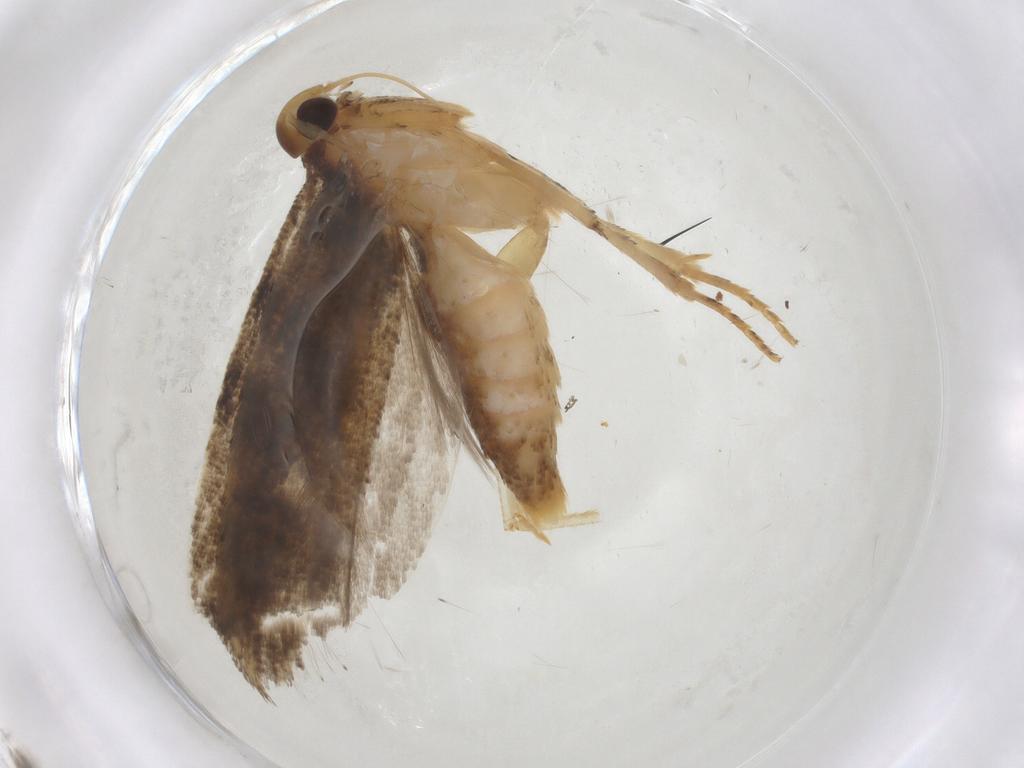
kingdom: Animalia
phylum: Arthropoda
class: Insecta
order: Lepidoptera
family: Gelechiidae
